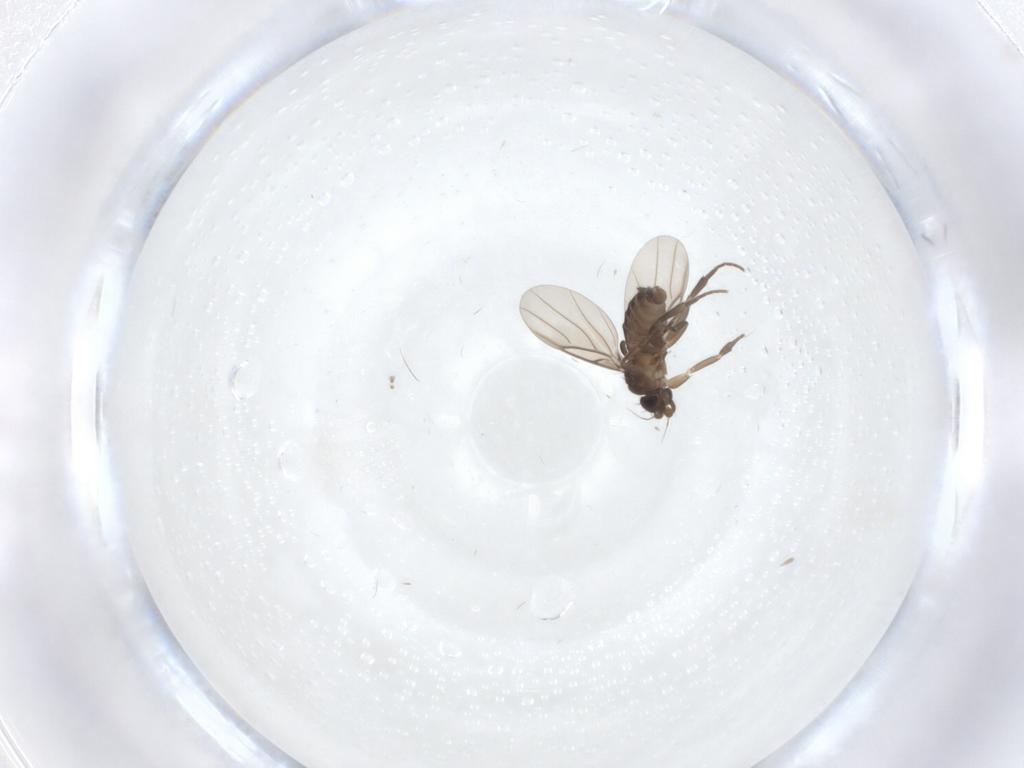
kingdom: Animalia
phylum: Arthropoda
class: Insecta
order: Diptera
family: Phoridae
